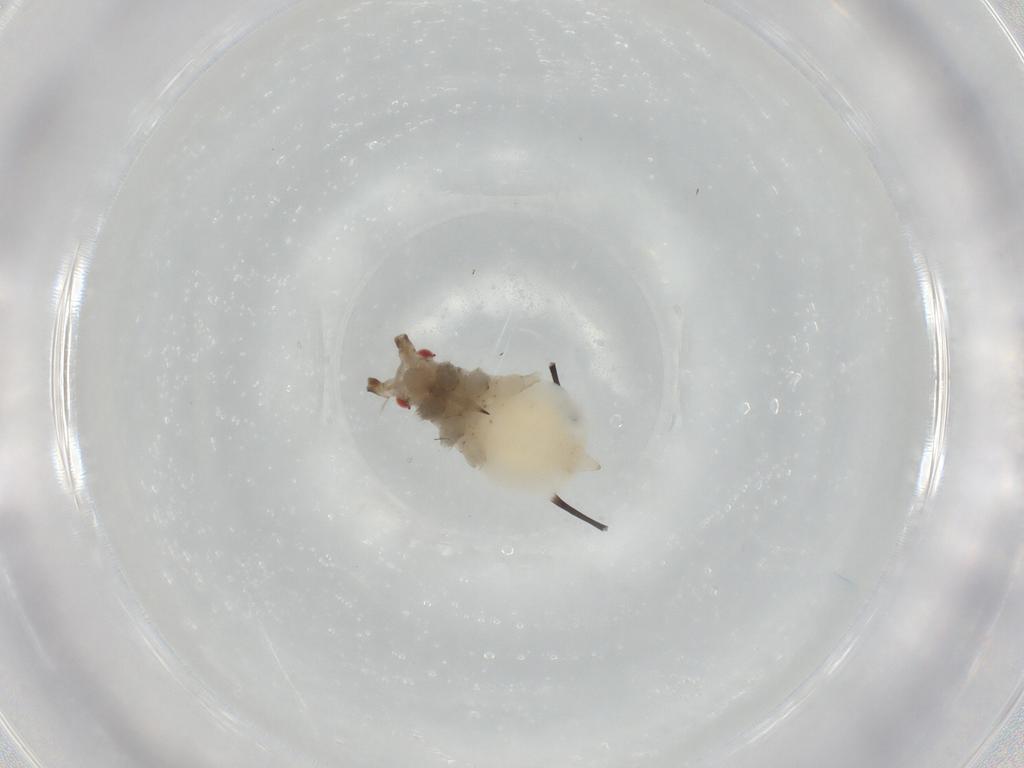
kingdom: Animalia
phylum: Arthropoda
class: Insecta
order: Hemiptera
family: Aphididae
